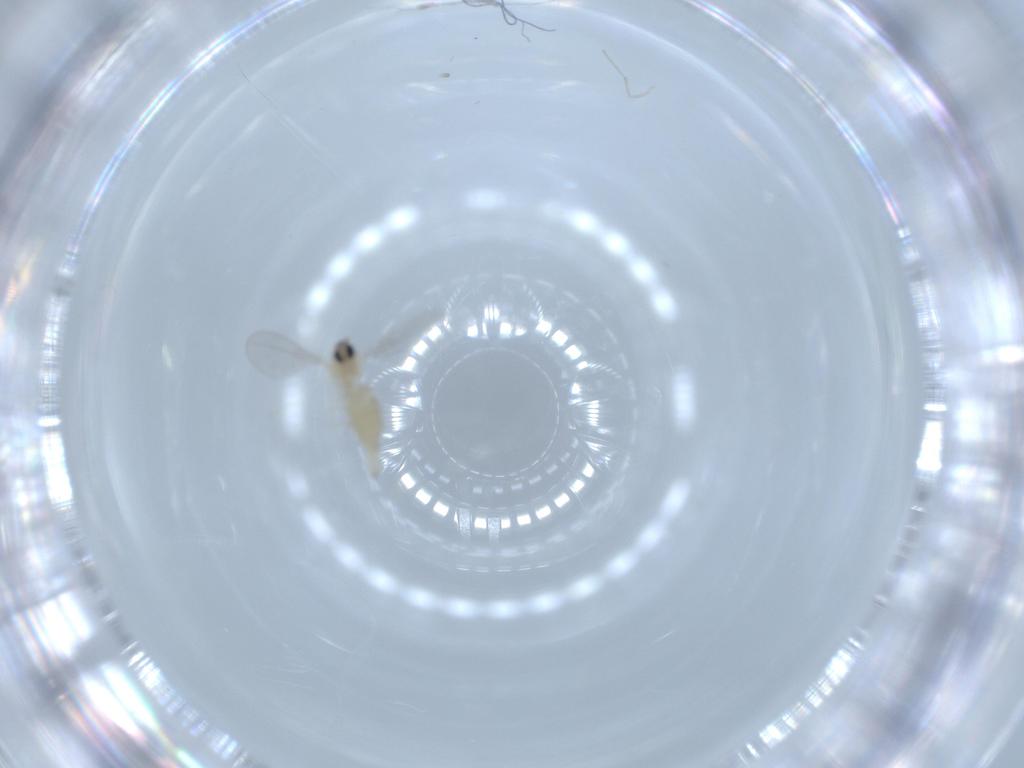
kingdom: Animalia
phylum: Arthropoda
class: Insecta
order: Diptera
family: Cecidomyiidae
